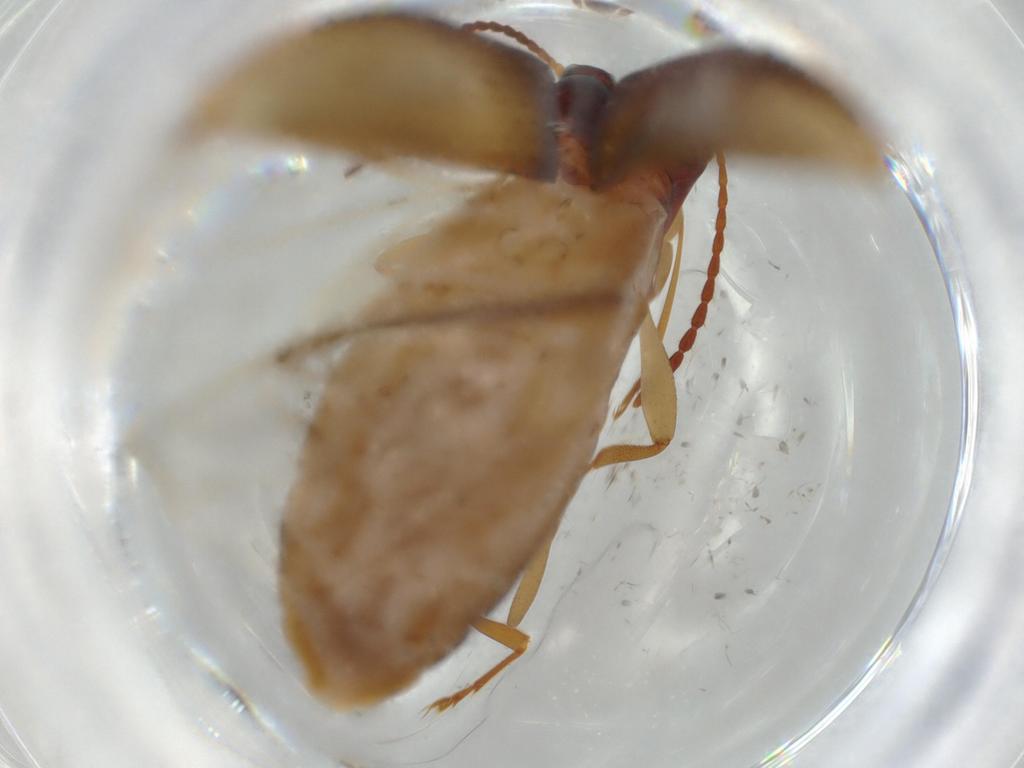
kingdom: Animalia
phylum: Arthropoda
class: Insecta
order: Coleoptera
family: Tenebrionidae
